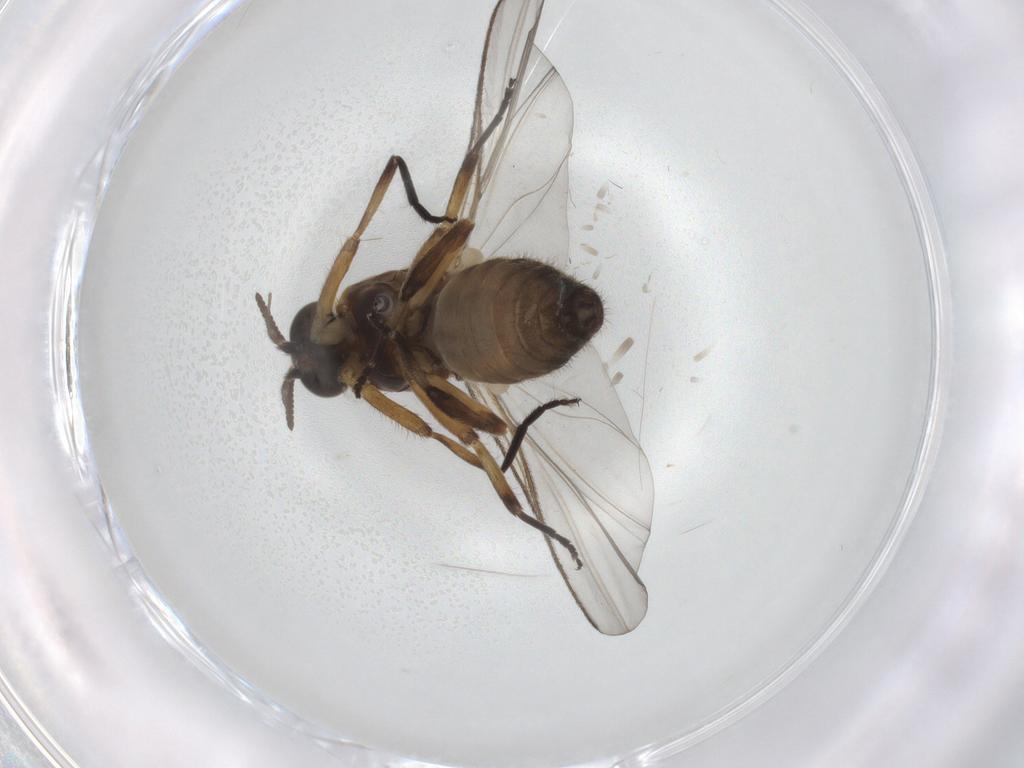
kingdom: Animalia
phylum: Arthropoda
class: Insecta
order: Diptera
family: Simuliidae
